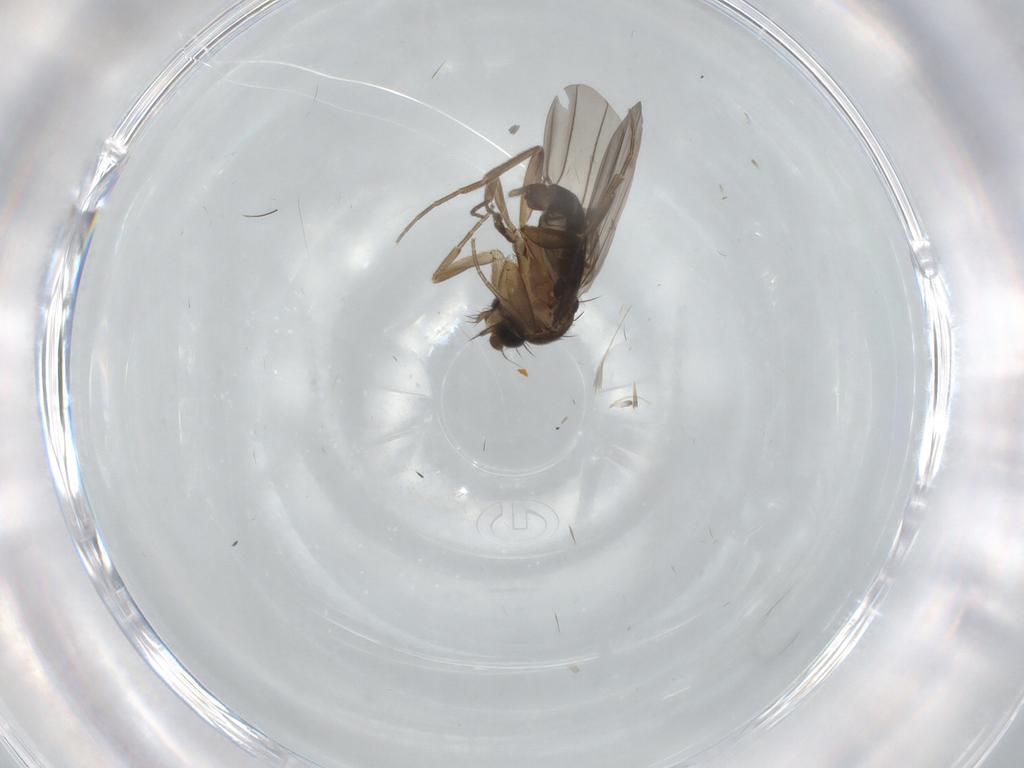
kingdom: Animalia
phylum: Arthropoda
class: Insecta
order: Diptera
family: Phoridae
